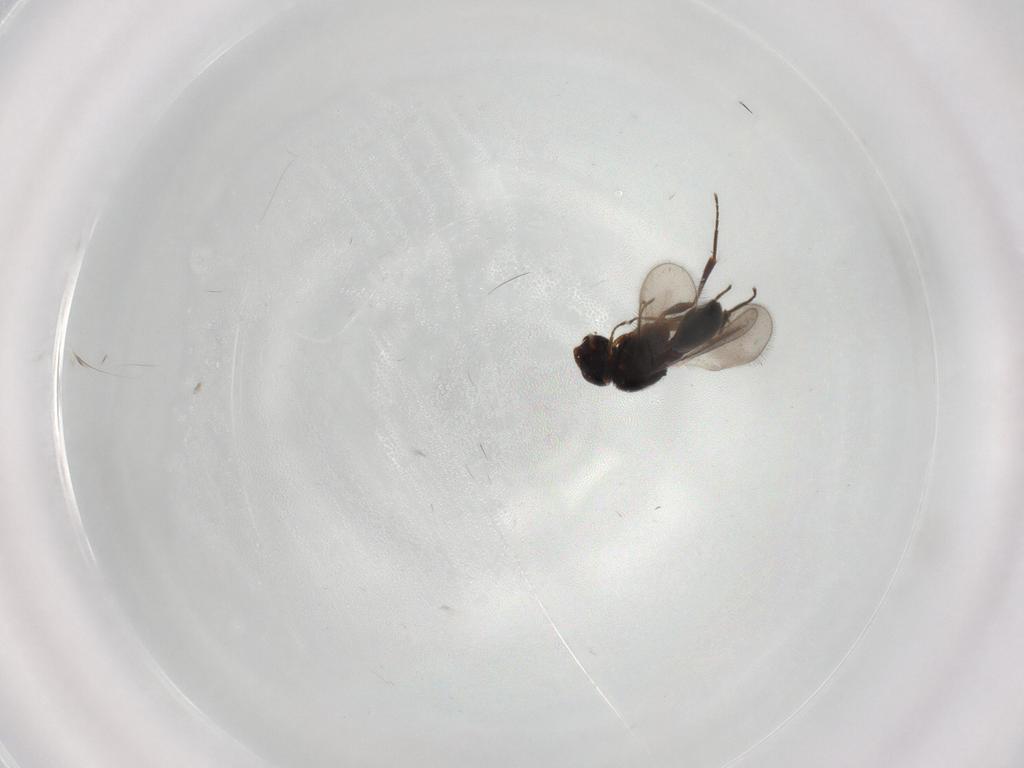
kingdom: Animalia
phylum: Arthropoda
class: Insecta
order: Hymenoptera
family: Scelionidae
